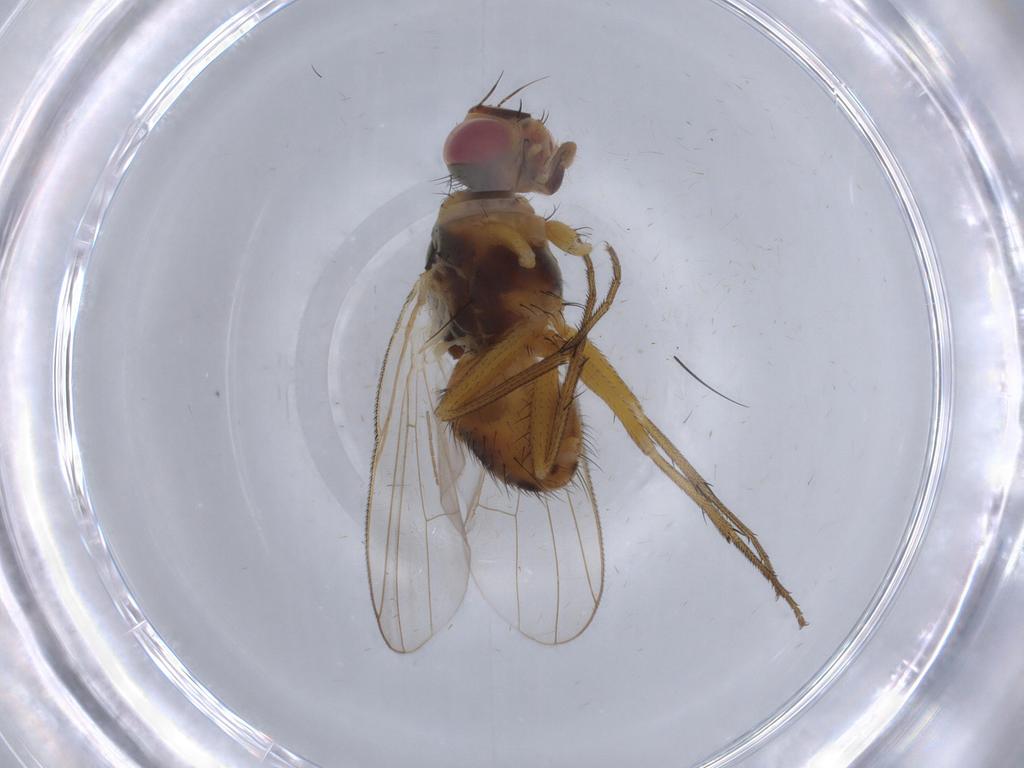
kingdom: Animalia
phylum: Arthropoda
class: Insecta
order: Diptera
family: Muscidae
